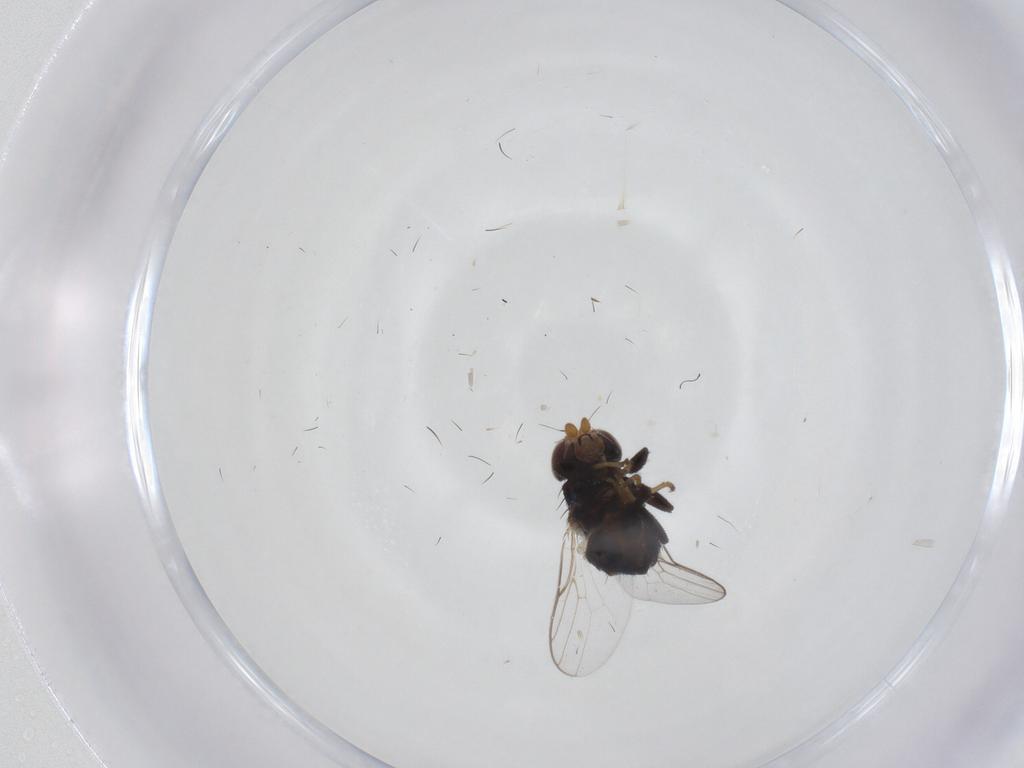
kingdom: Animalia
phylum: Arthropoda
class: Insecta
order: Diptera
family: Chloropidae
